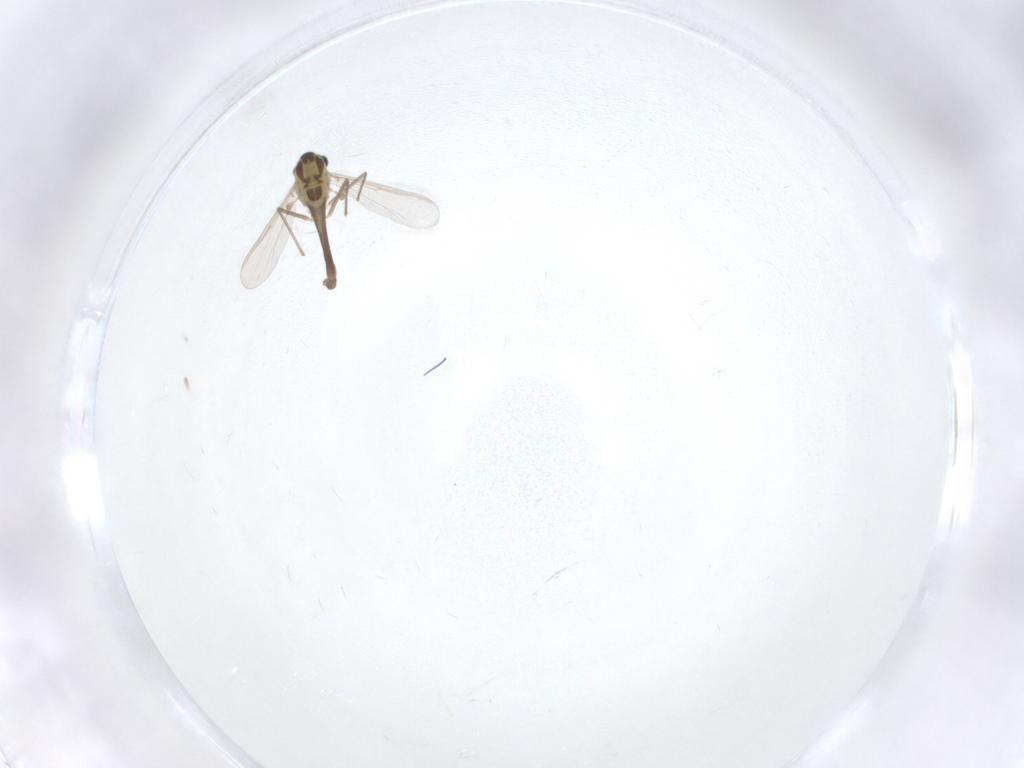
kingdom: Animalia
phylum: Arthropoda
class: Insecta
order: Diptera
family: Chironomidae
